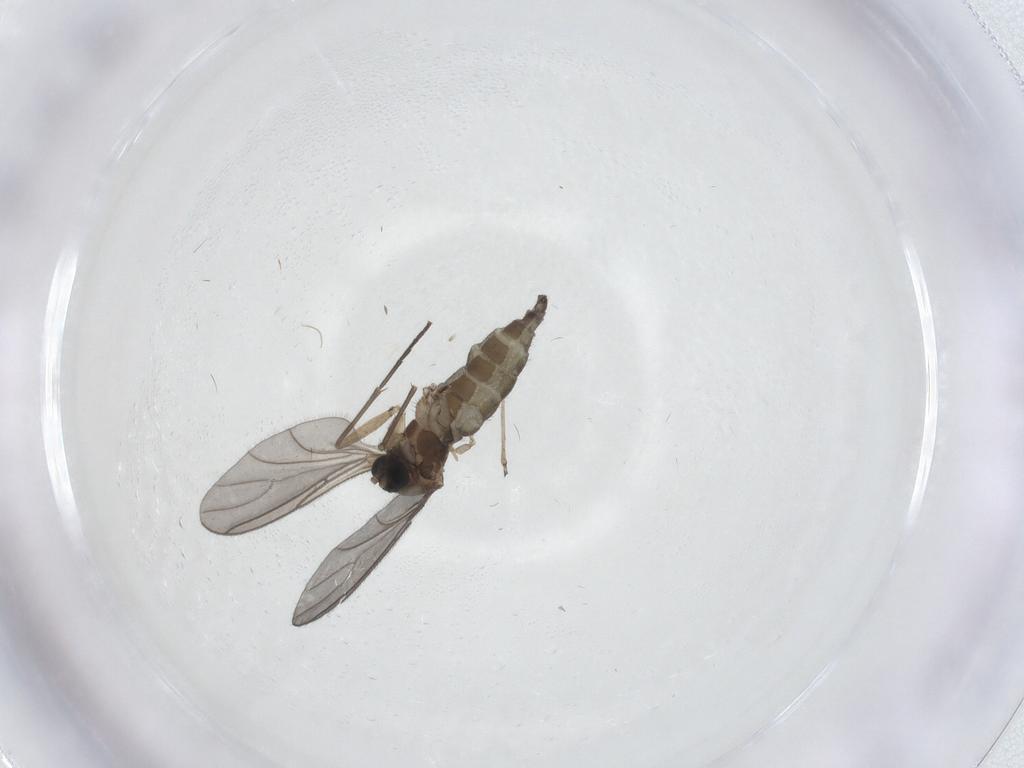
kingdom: Animalia
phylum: Arthropoda
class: Insecta
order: Diptera
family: Sciaridae
